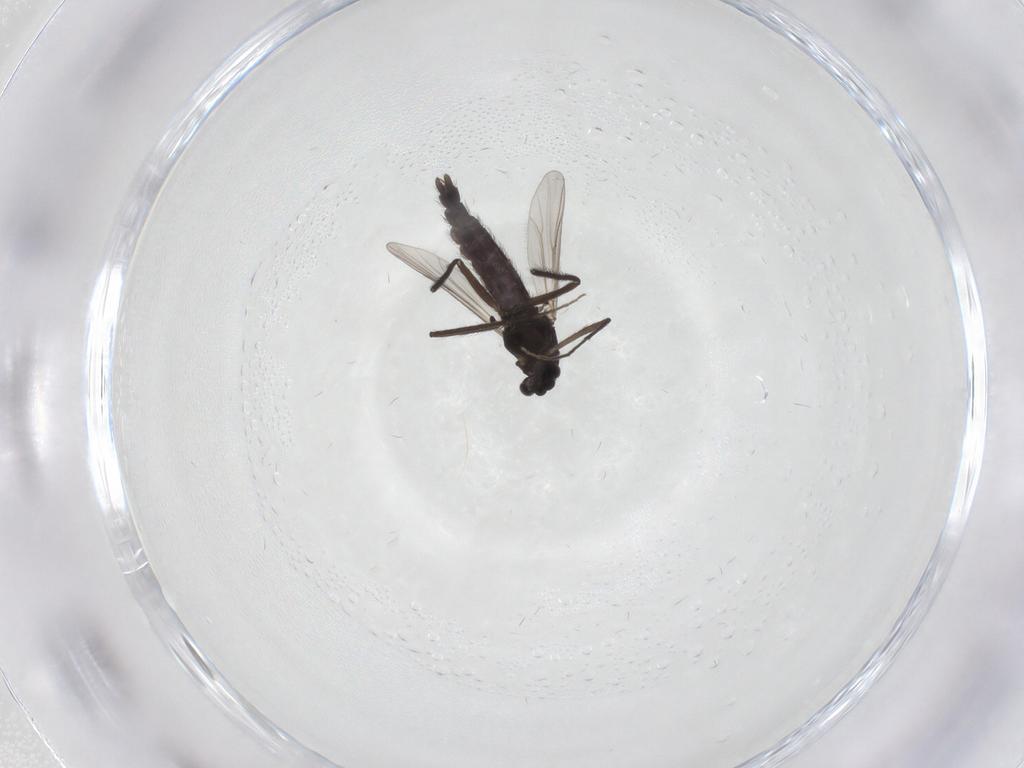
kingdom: Animalia
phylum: Arthropoda
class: Insecta
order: Diptera
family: Chironomidae
